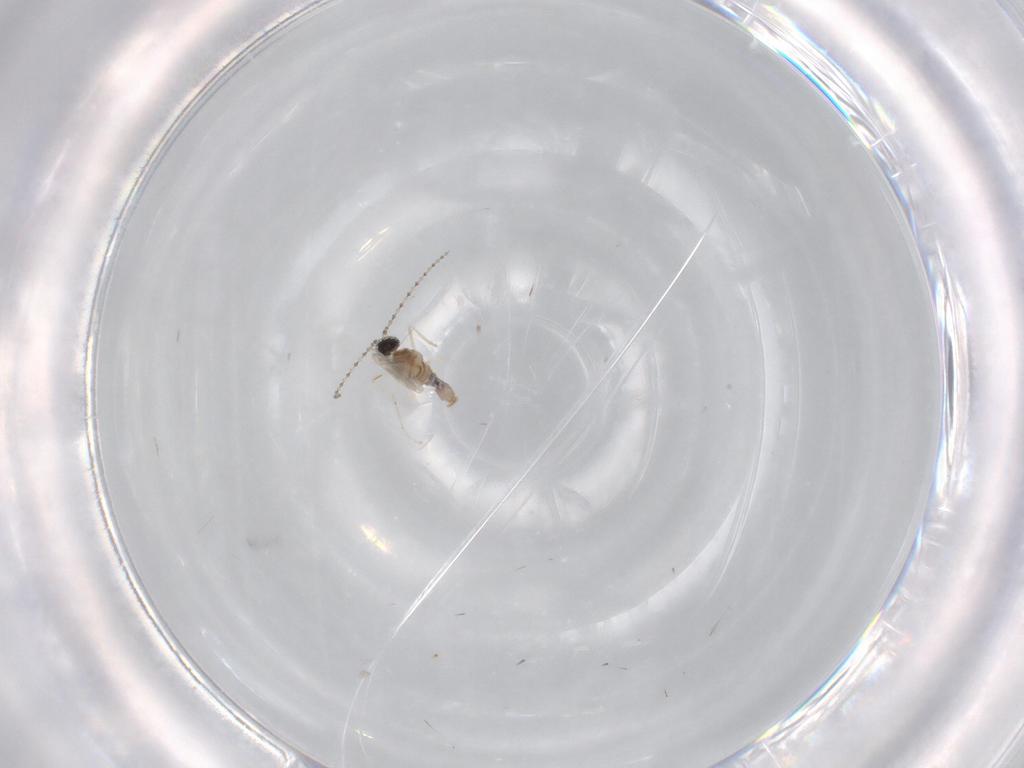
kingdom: Animalia
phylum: Arthropoda
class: Insecta
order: Diptera
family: Cecidomyiidae
